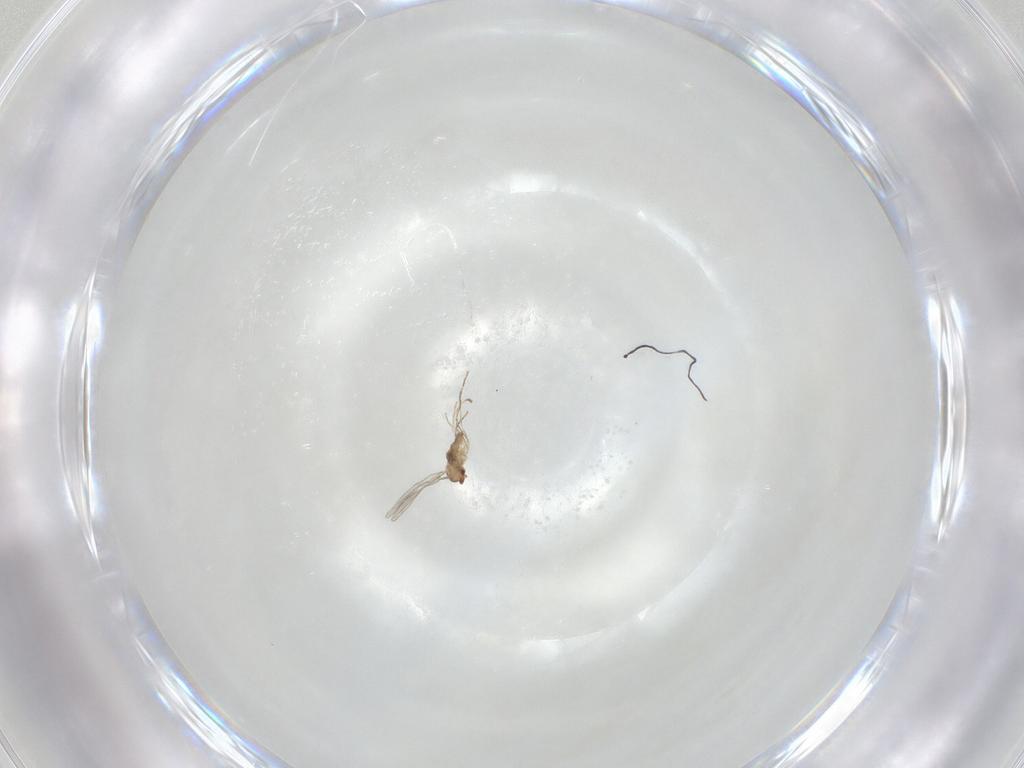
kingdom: Animalia
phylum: Arthropoda
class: Insecta
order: Diptera
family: Cecidomyiidae
